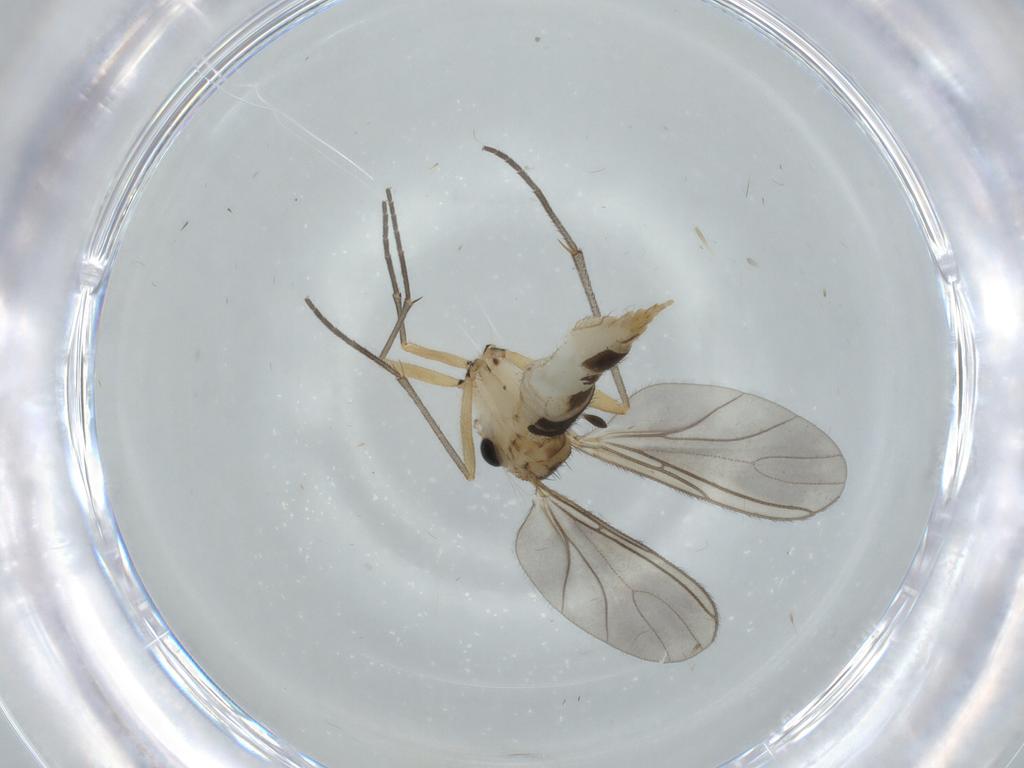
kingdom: Animalia
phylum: Arthropoda
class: Insecta
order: Diptera
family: Sciaridae
